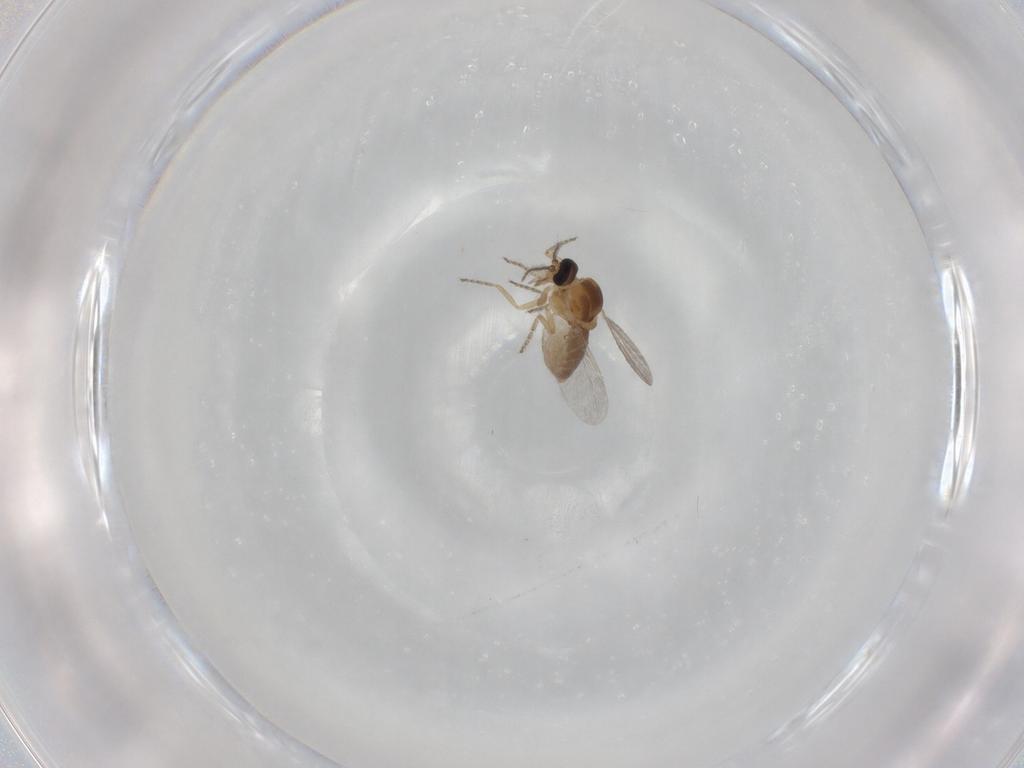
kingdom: Animalia
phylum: Arthropoda
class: Insecta
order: Diptera
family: Ceratopogonidae
